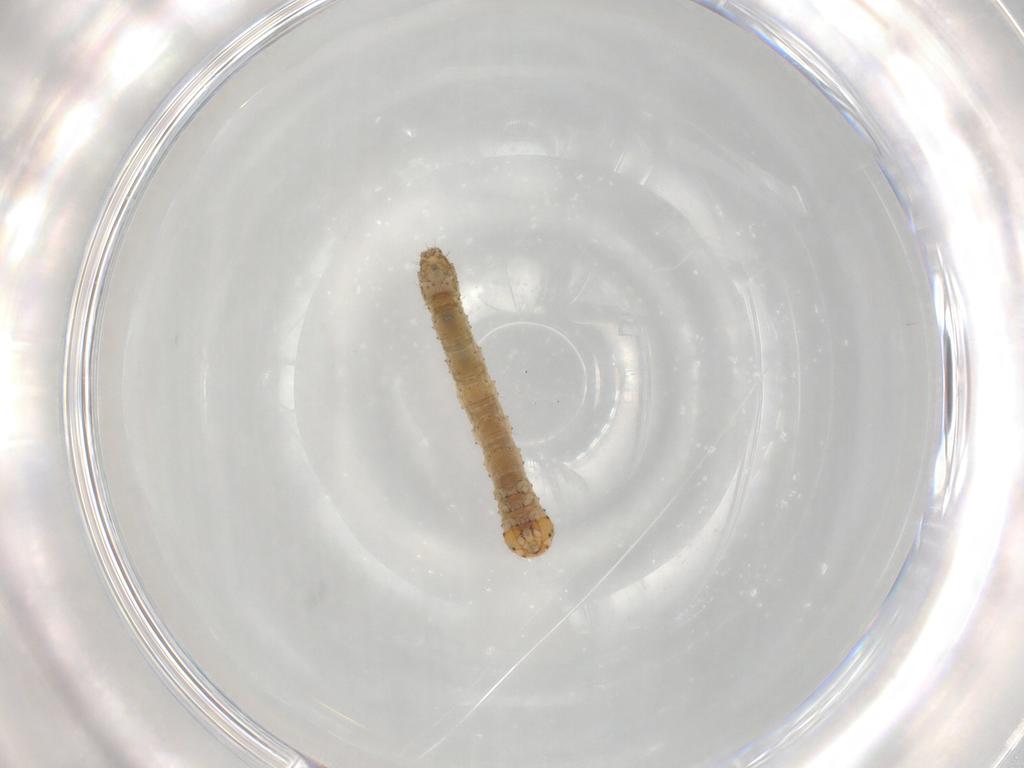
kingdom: Animalia
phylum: Arthropoda
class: Insecta
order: Lepidoptera
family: Geometridae
